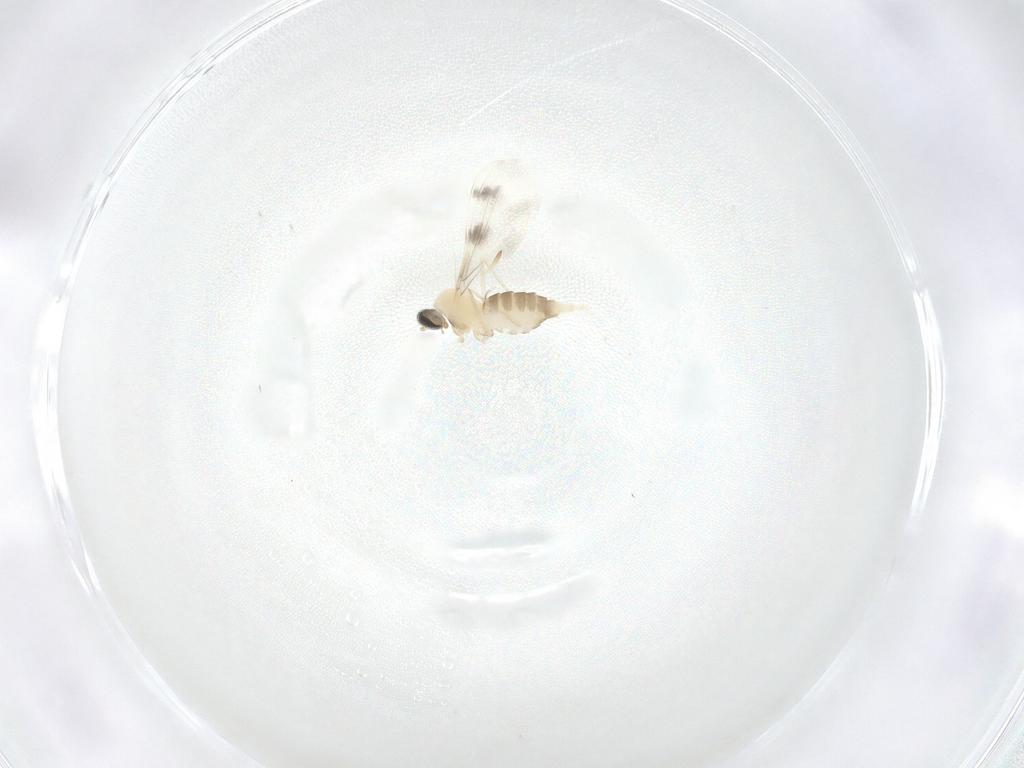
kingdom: Animalia
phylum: Arthropoda
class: Insecta
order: Diptera
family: Cecidomyiidae
